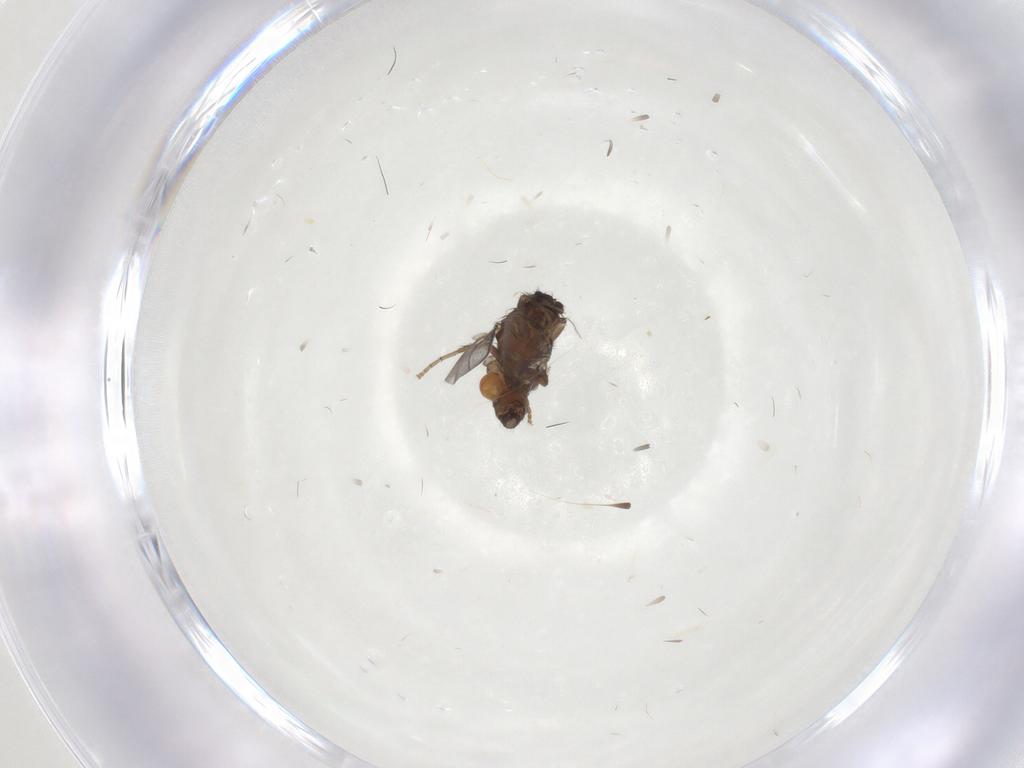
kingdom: Animalia
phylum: Arthropoda
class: Insecta
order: Diptera
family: Sphaeroceridae
